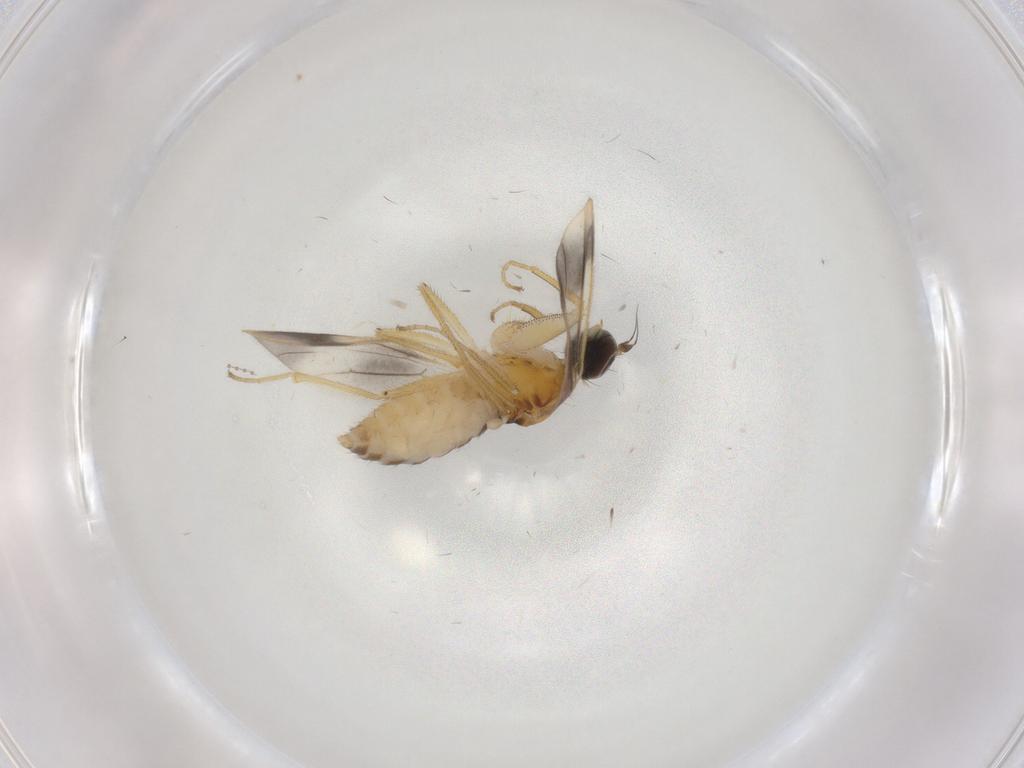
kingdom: Animalia
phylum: Arthropoda
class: Insecta
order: Diptera
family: Empididae
